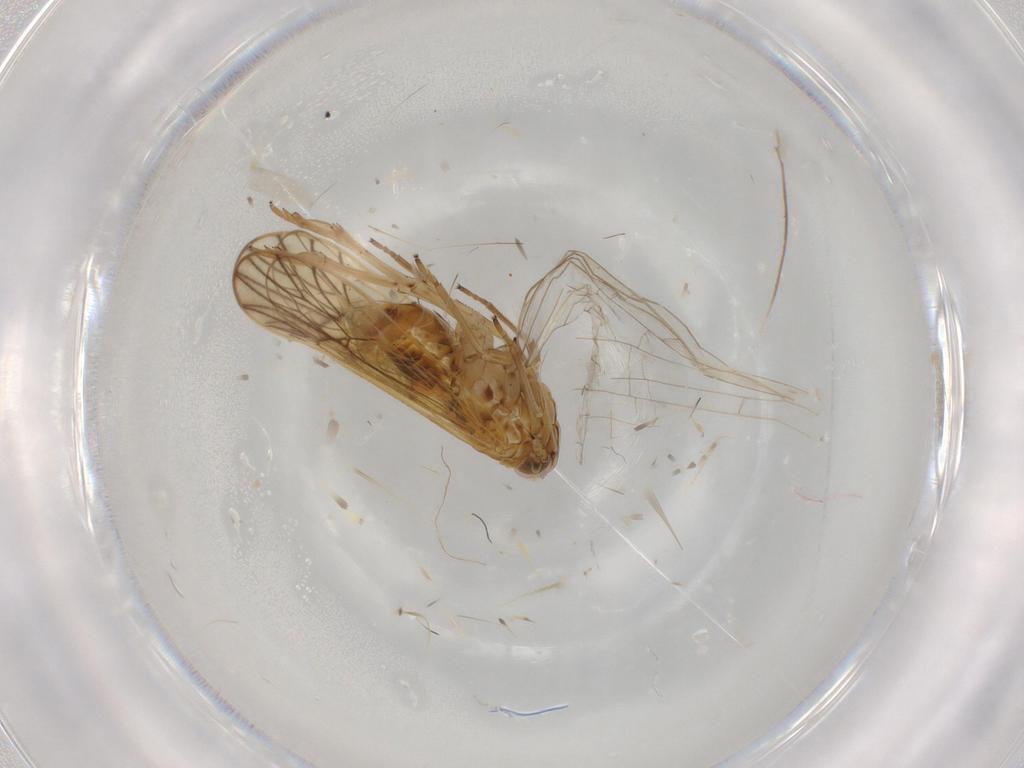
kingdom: Animalia
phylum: Arthropoda
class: Insecta
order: Hemiptera
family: Delphacidae
